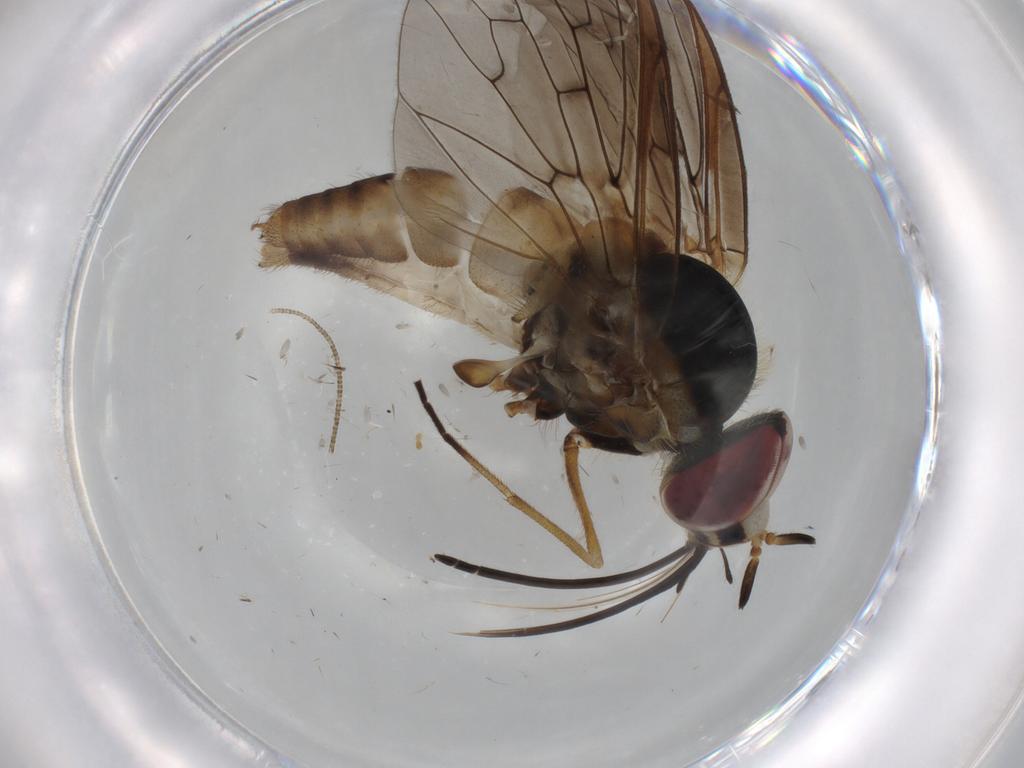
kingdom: Animalia
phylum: Arthropoda
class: Insecta
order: Diptera
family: Bombyliidae
